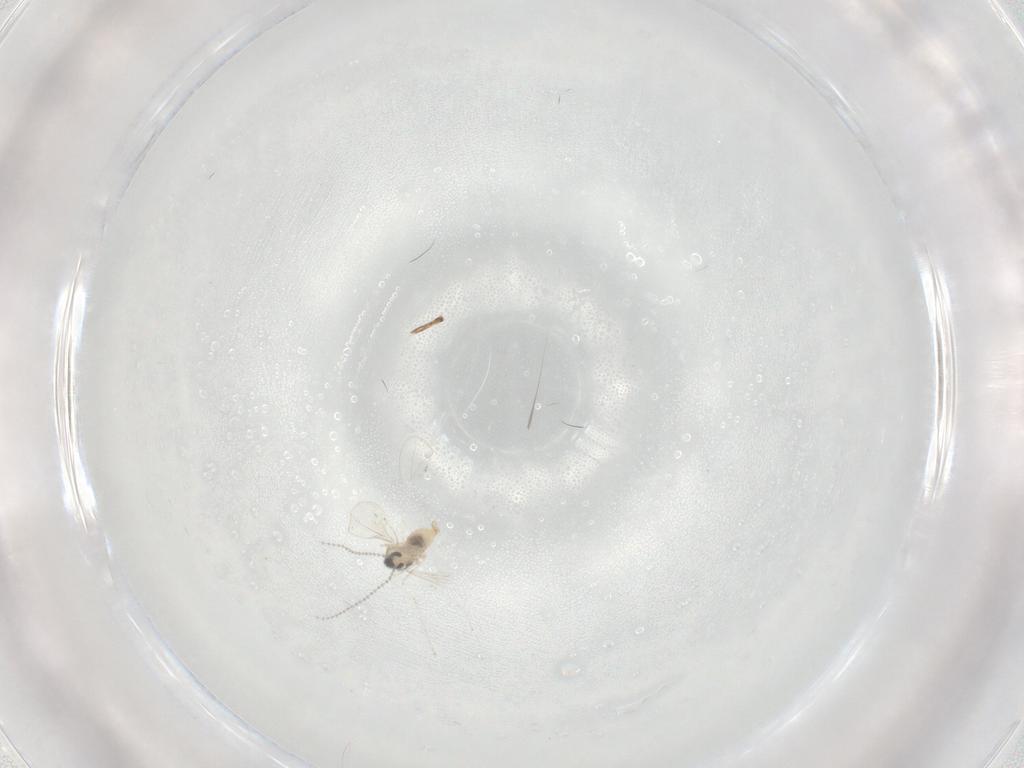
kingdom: Animalia
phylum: Arthropoda
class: Insecta
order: Diptera
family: Cecidomyiidae
